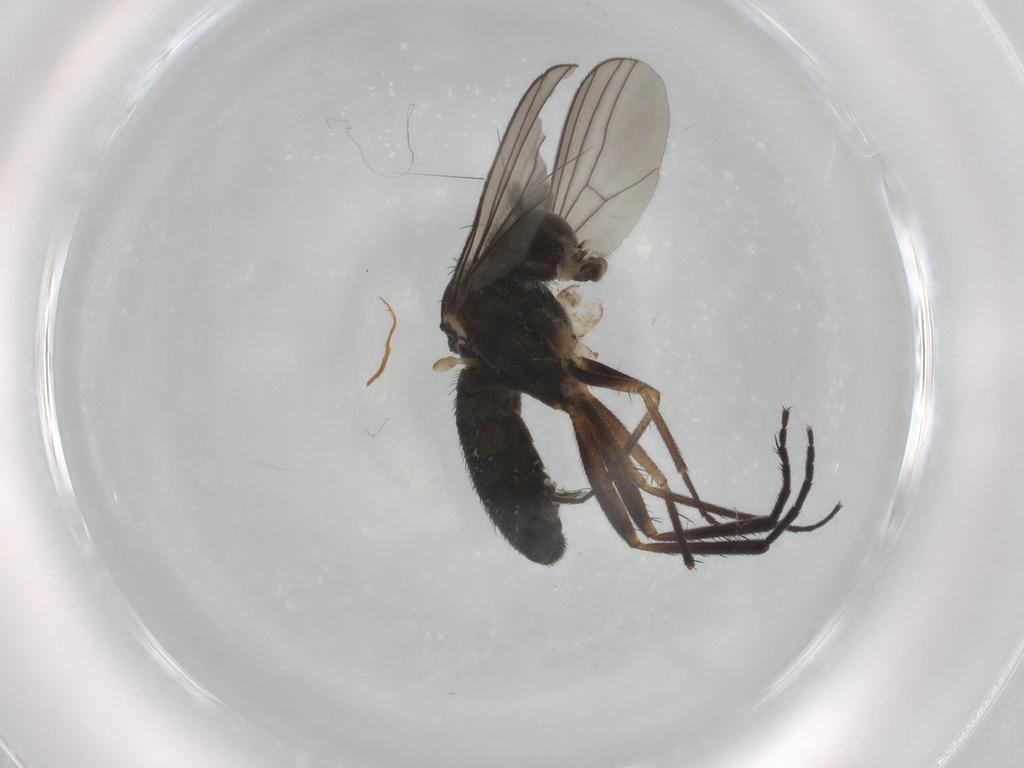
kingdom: Animalia
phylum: Arthropoda
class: Insecta
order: Diptera
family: Dolichopodidae
